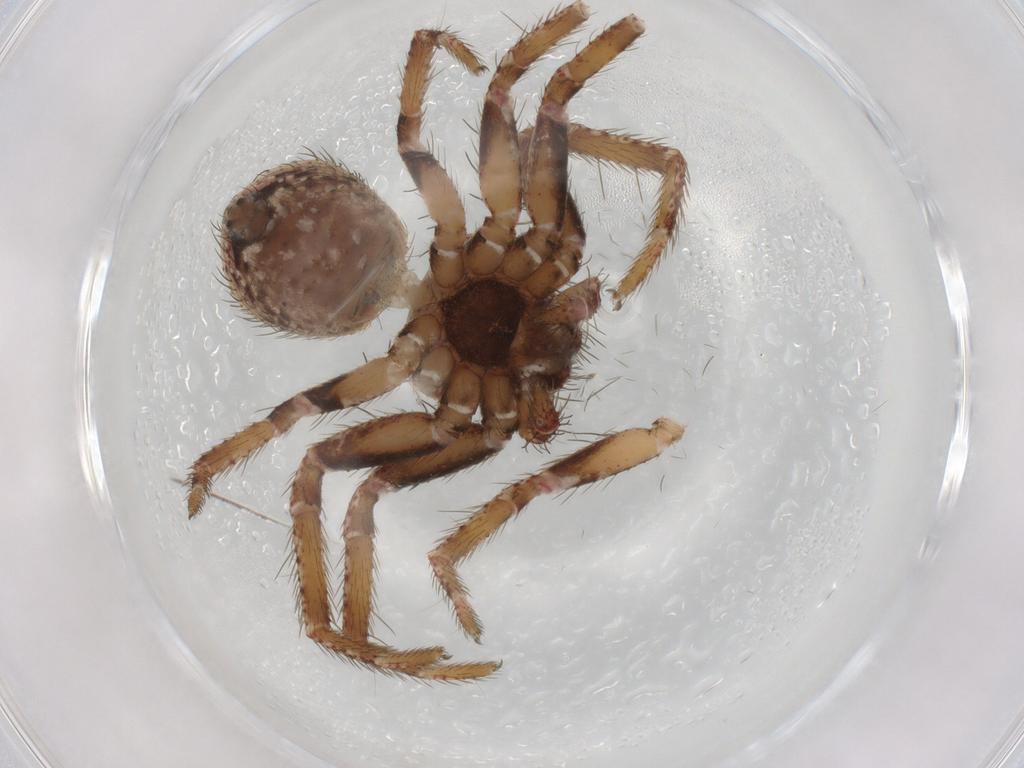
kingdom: Animalia
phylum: Arthropoda
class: Arachnida
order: Araneae
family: Thomisidae
